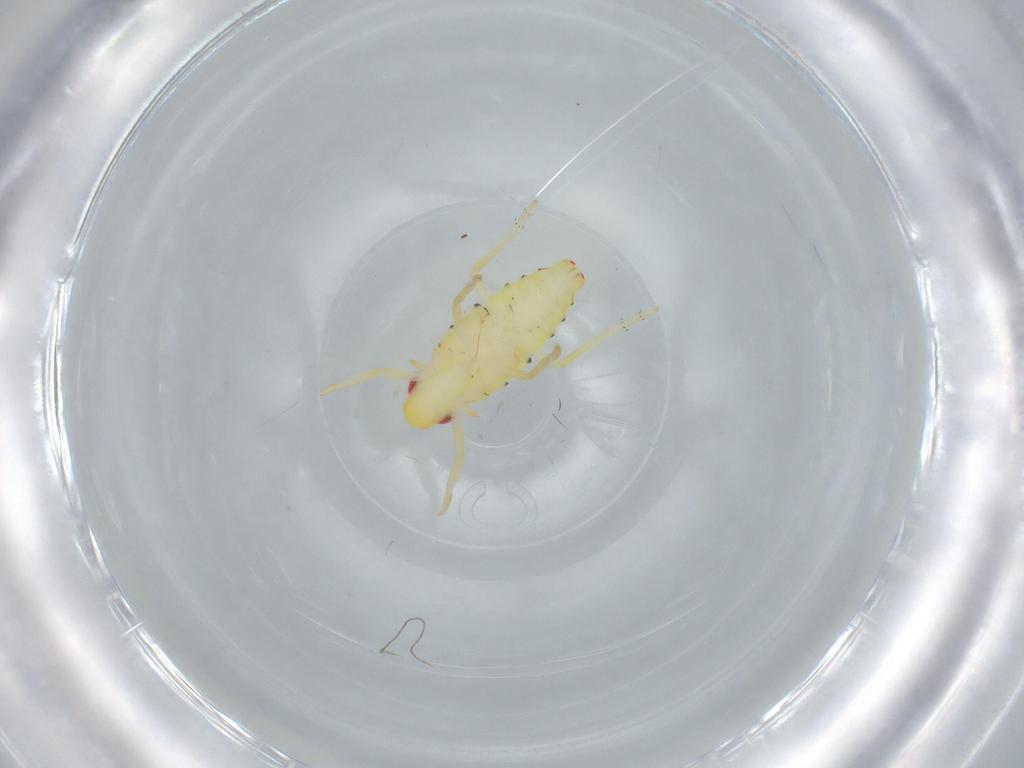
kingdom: Animalia
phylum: Arthropoda
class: Insecta
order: Hemiptera
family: Tropiduchidae
